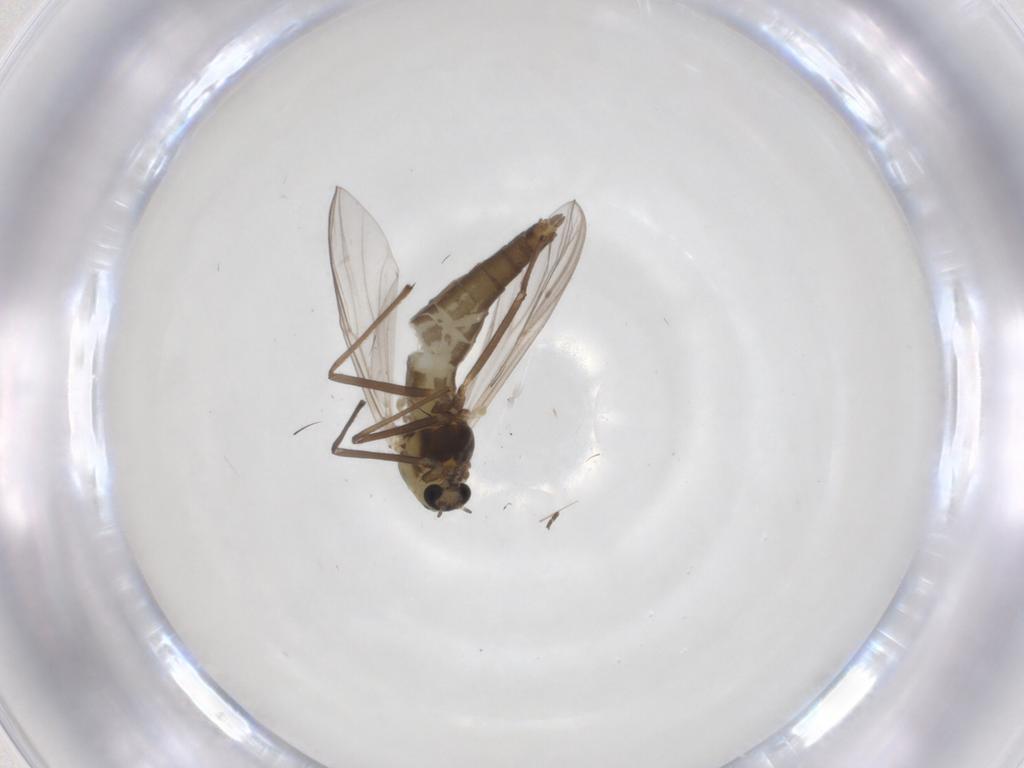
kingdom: Animalia
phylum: Arthropoda
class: Insecta
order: Diptera
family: Chironomidae
